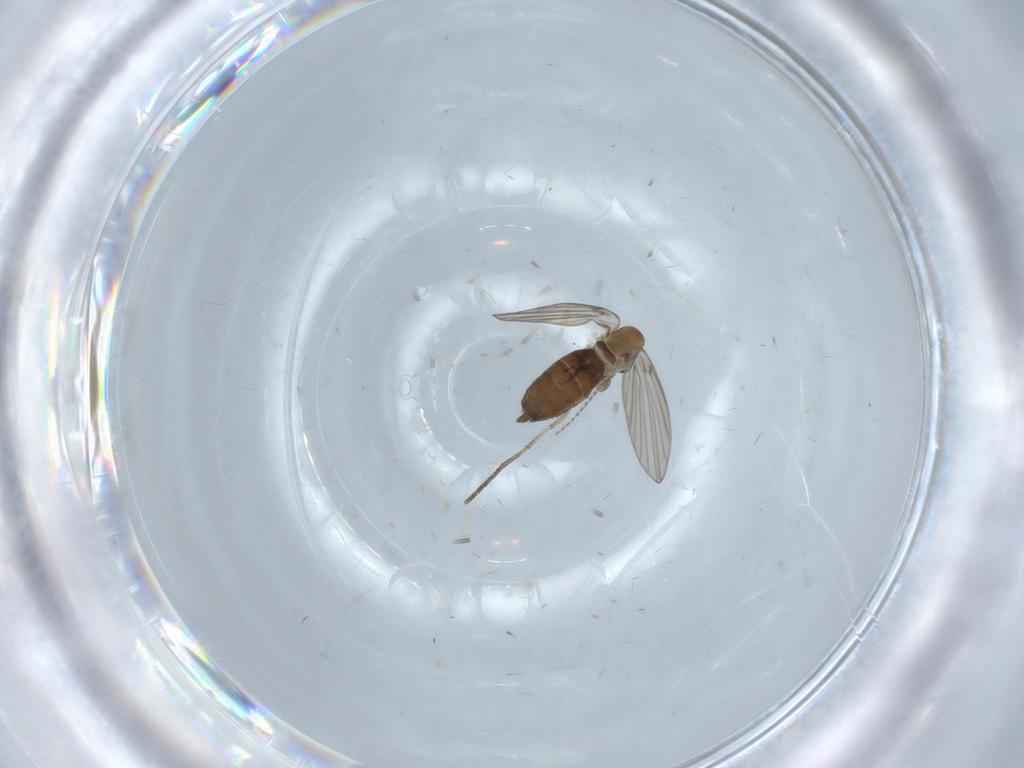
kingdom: Animalia
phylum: Arthropoda
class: Insecta
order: Diptera
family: Psychodidae
